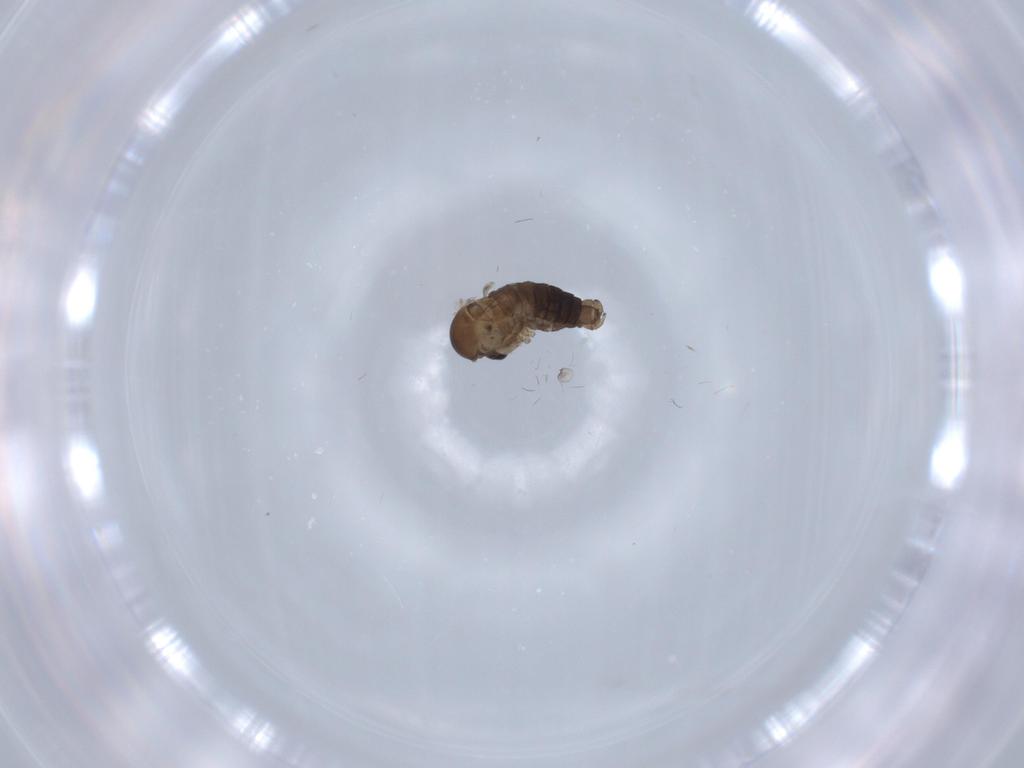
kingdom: Animalia
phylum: Arthropoda
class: Insecta
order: Diptera
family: Psychodidae
